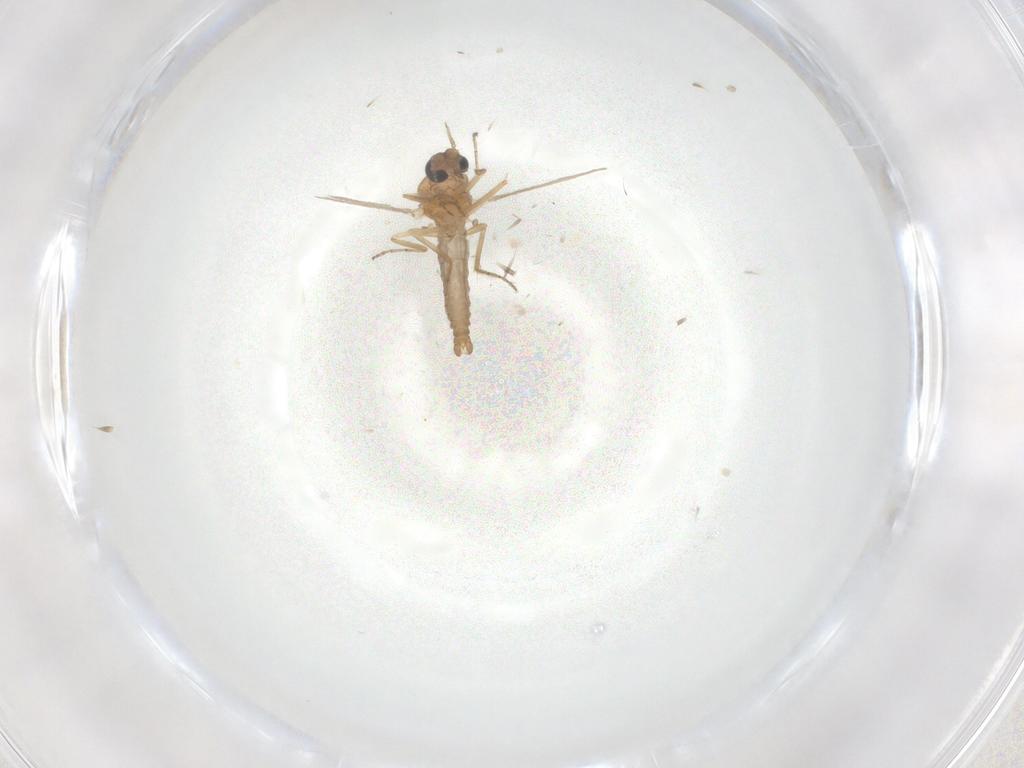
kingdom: Animalia
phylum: Arthropoda
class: Insecta
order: Diptera
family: Ceratopogonidae
